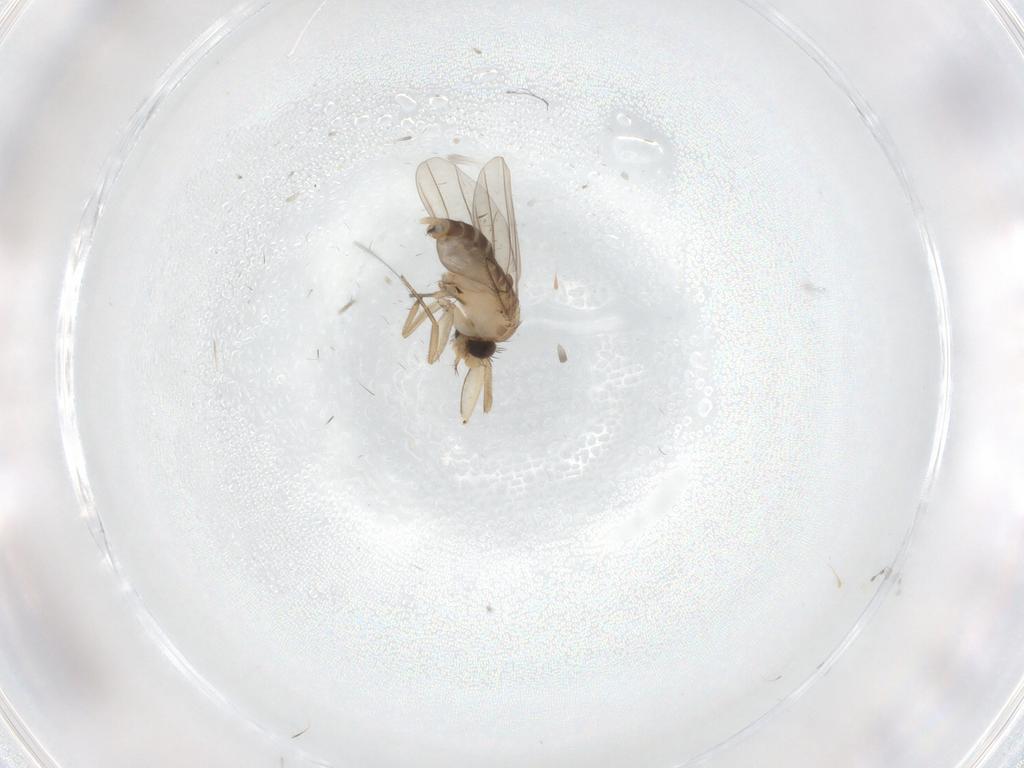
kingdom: Animalia
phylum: Arthropoda
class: Insecta
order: Diptera
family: Phoridae
